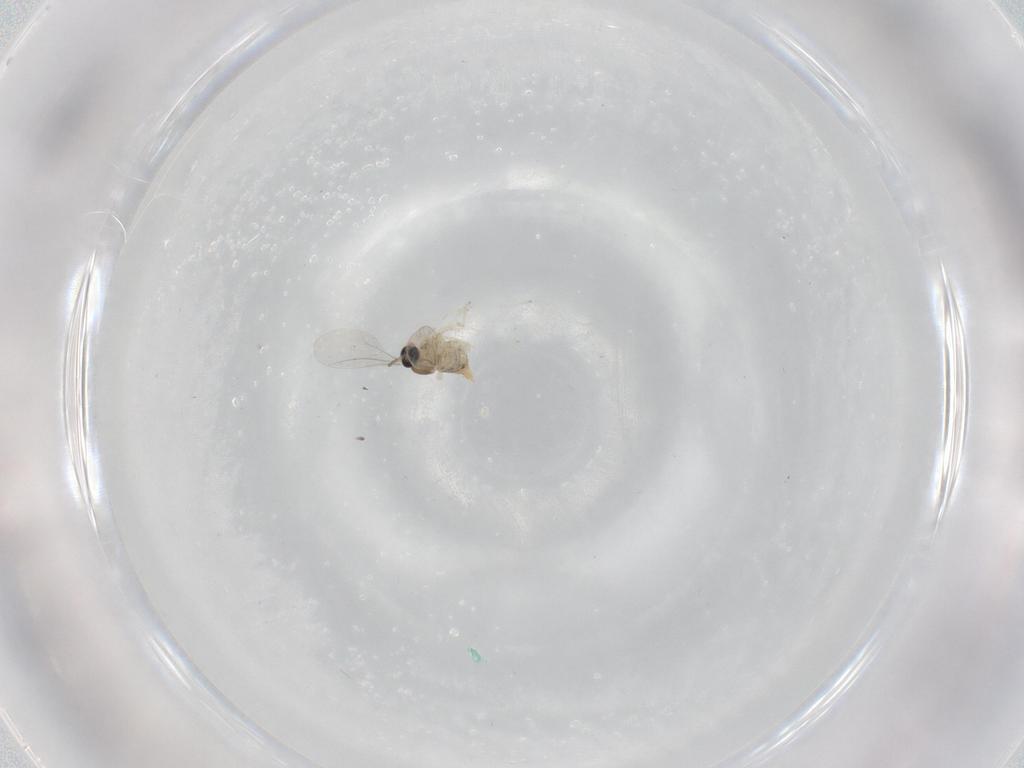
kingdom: Animalia
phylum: Arthropoda
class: Insecta
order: Diptera
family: Cecidomyiidae
